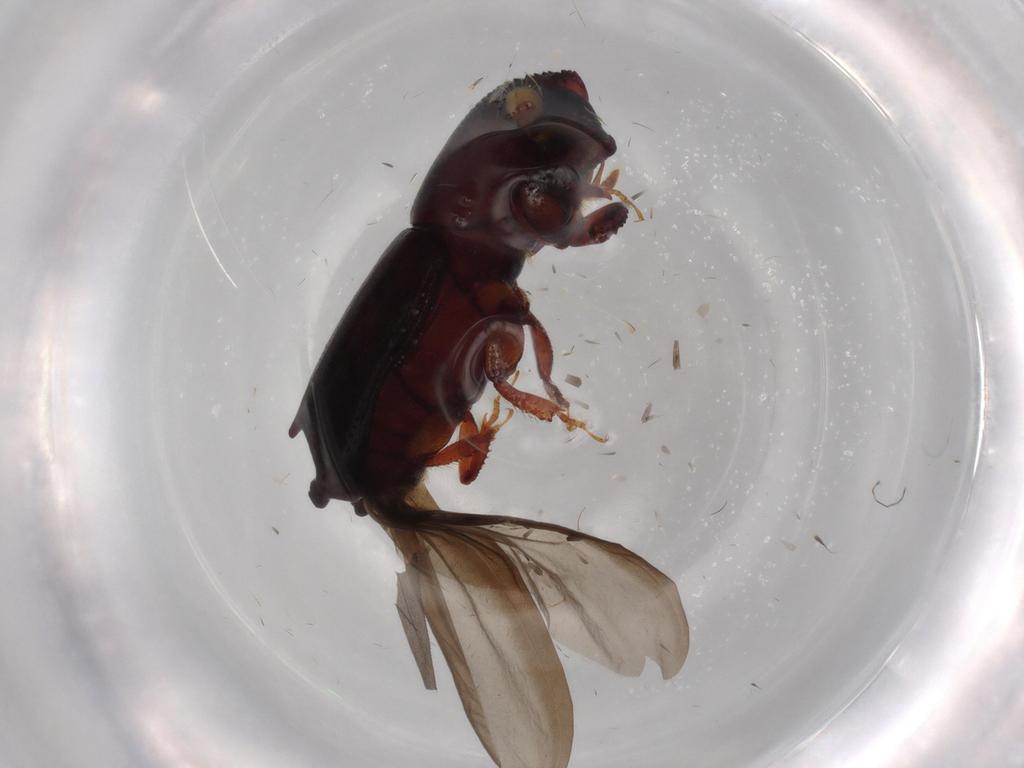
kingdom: Animalia
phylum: Arthropoda
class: Insecta
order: Coleoptera
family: Curculionidae
